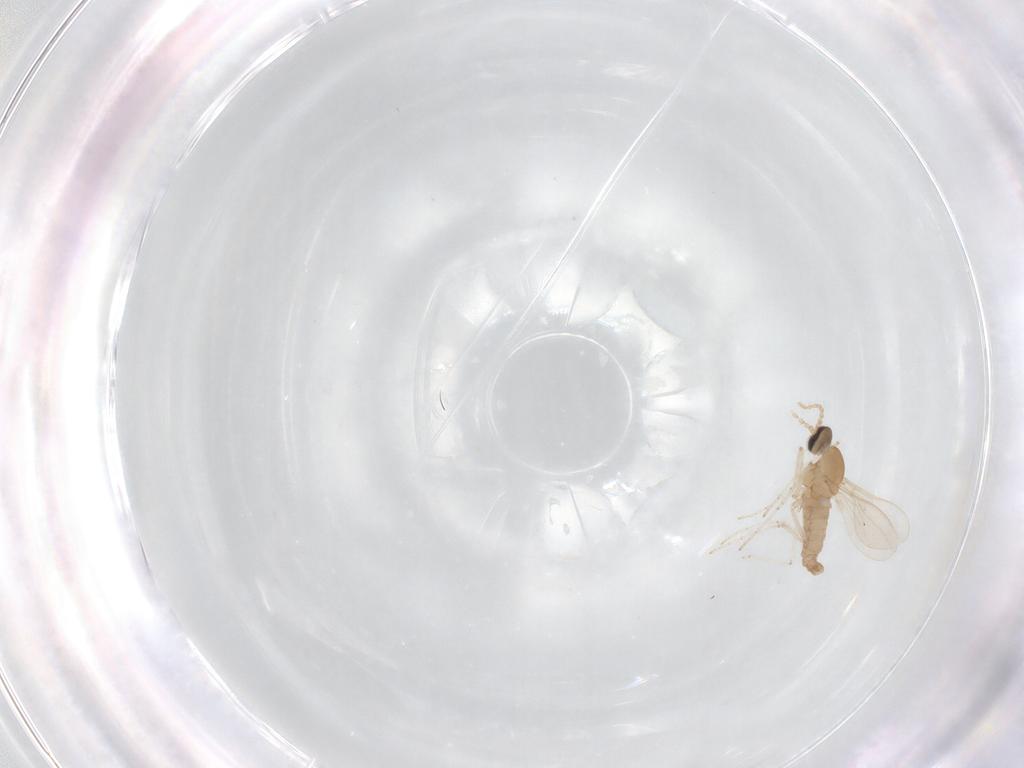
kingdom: Animalia
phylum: Arthropoda
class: Insecta
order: Diptera
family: Cecidomyiidae
